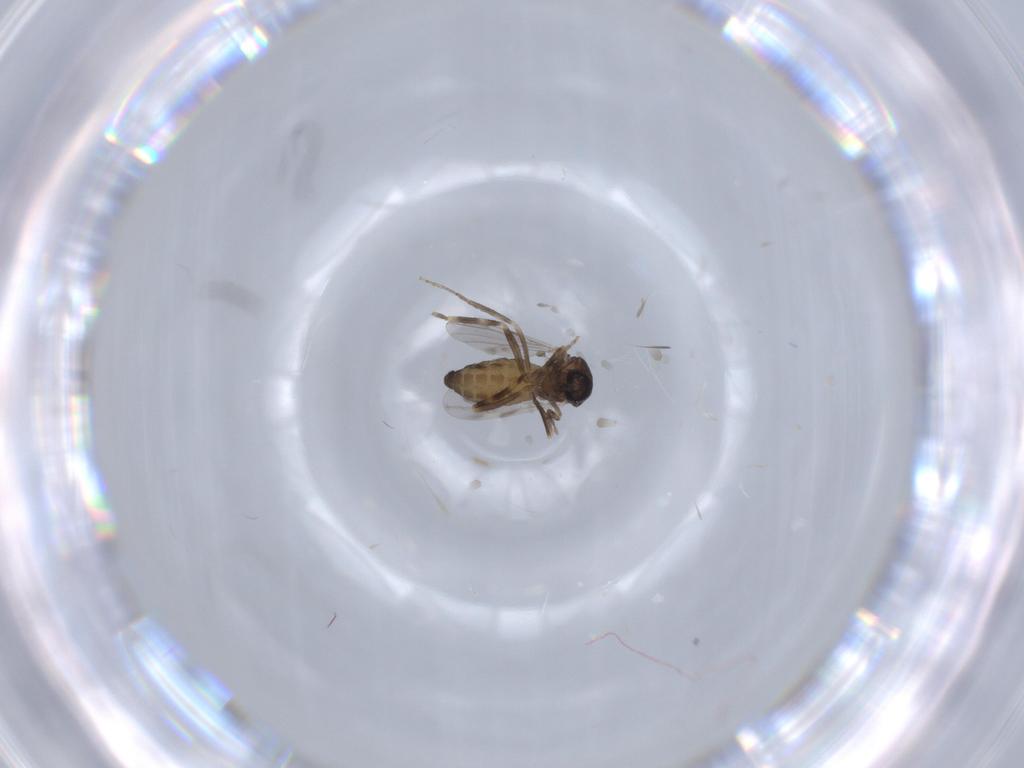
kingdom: Animalia
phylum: Arthropoda
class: Insecta
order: Diptera
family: Ceratopogonidae
